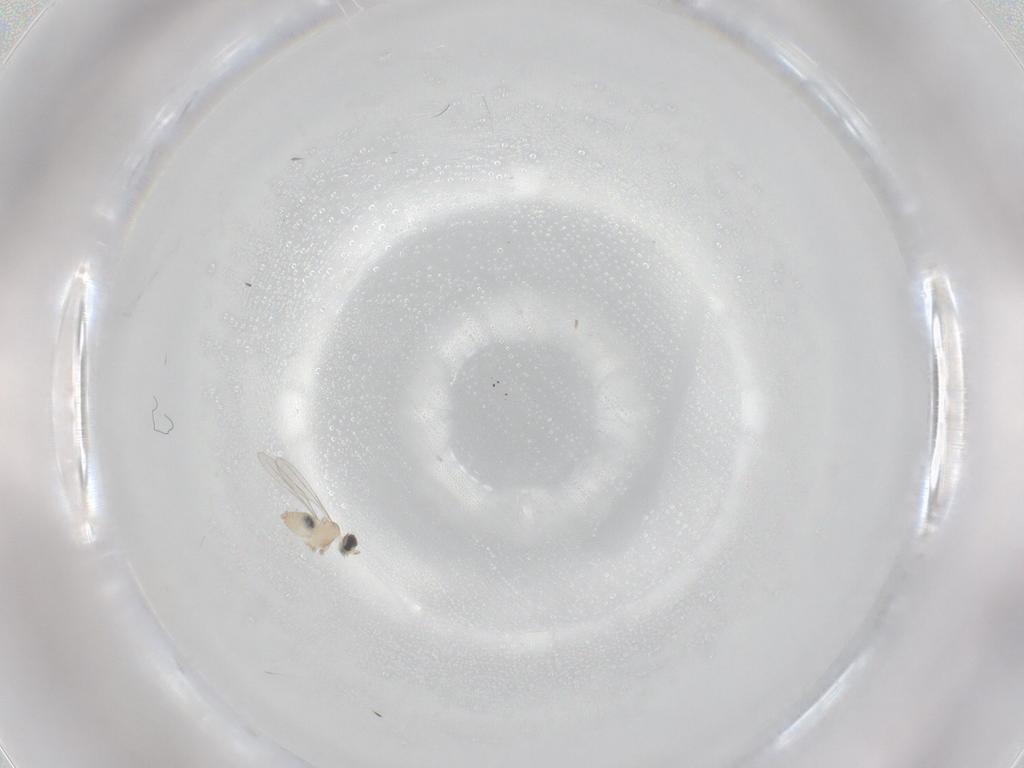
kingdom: Animalia
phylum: Arthropoda
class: Insecta
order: Diptera
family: Cecidomyiidae
